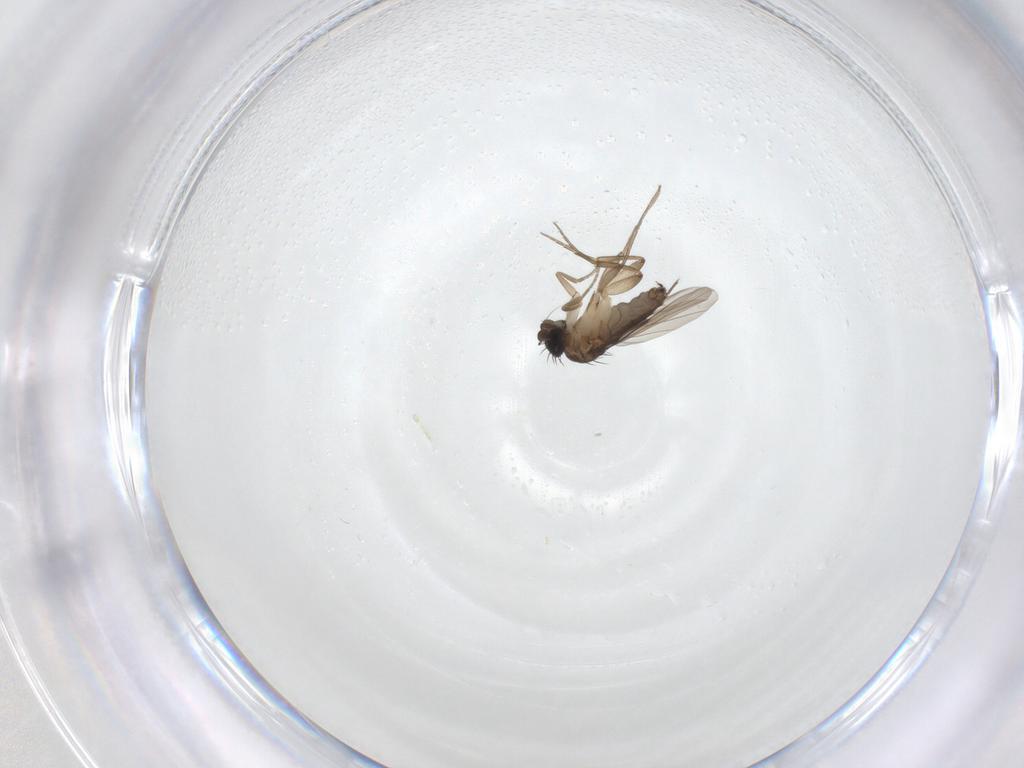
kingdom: Animalia
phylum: Arthropoda
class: Insecta
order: Diptera
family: Phoridae
